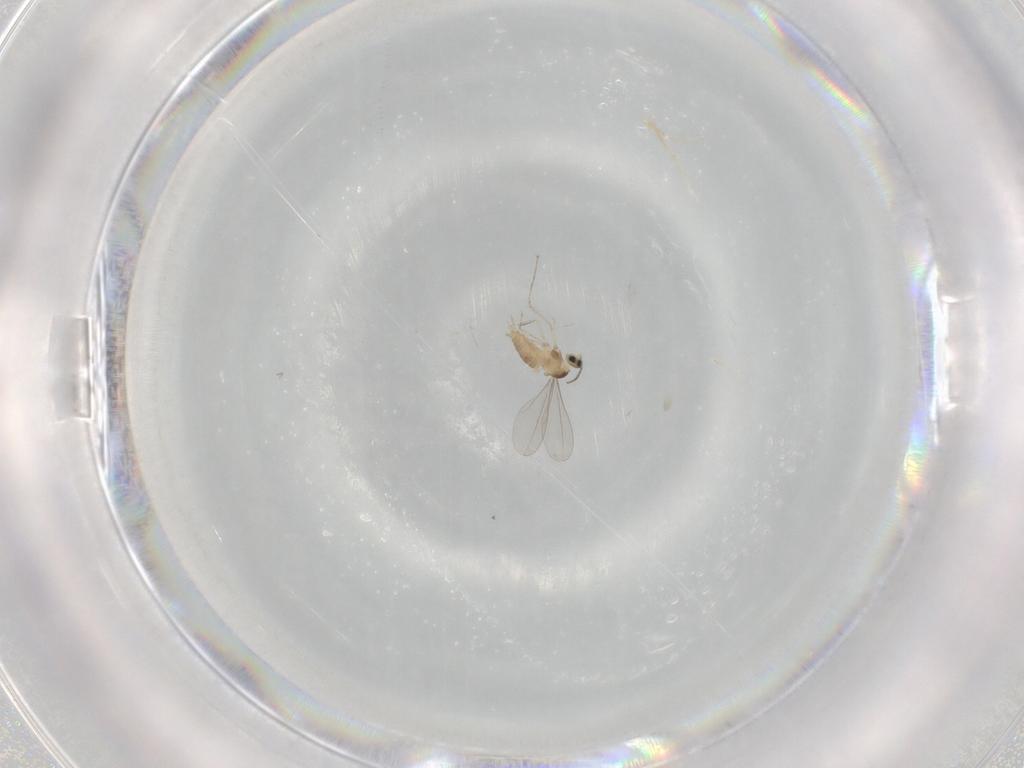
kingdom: Animalia
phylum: Arthropoda
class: Insecta
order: Diptera
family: Cecidomyiidae
